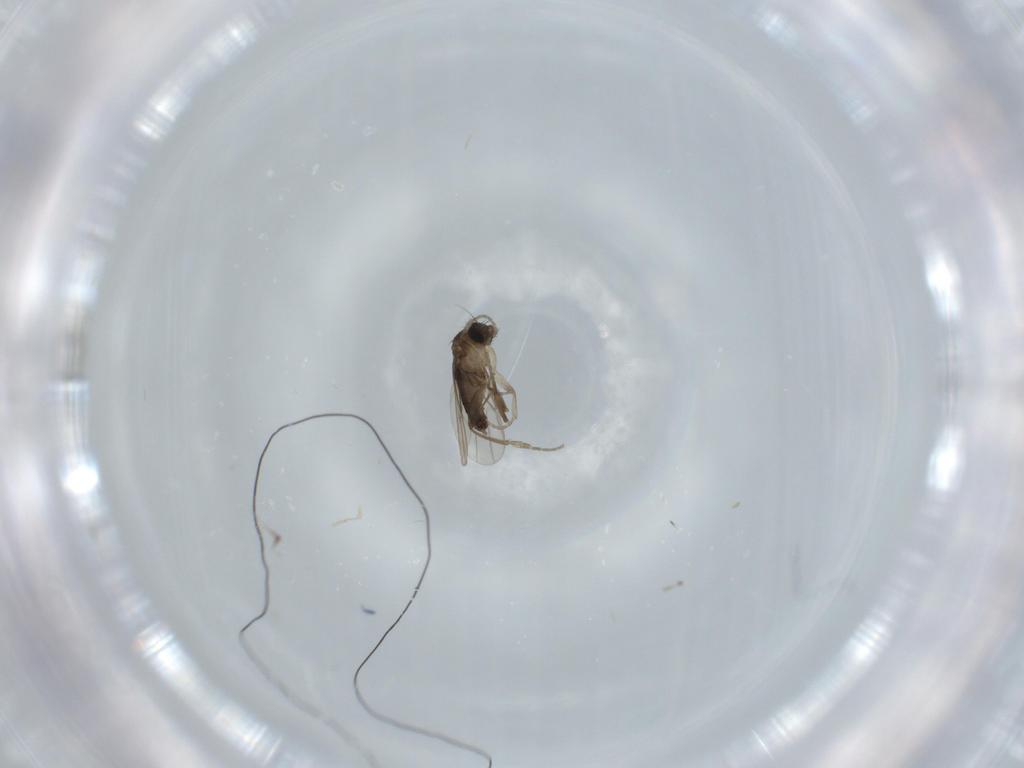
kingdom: Animalia
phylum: Arthropoda
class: Insecta
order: Diptera
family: Phoridae
